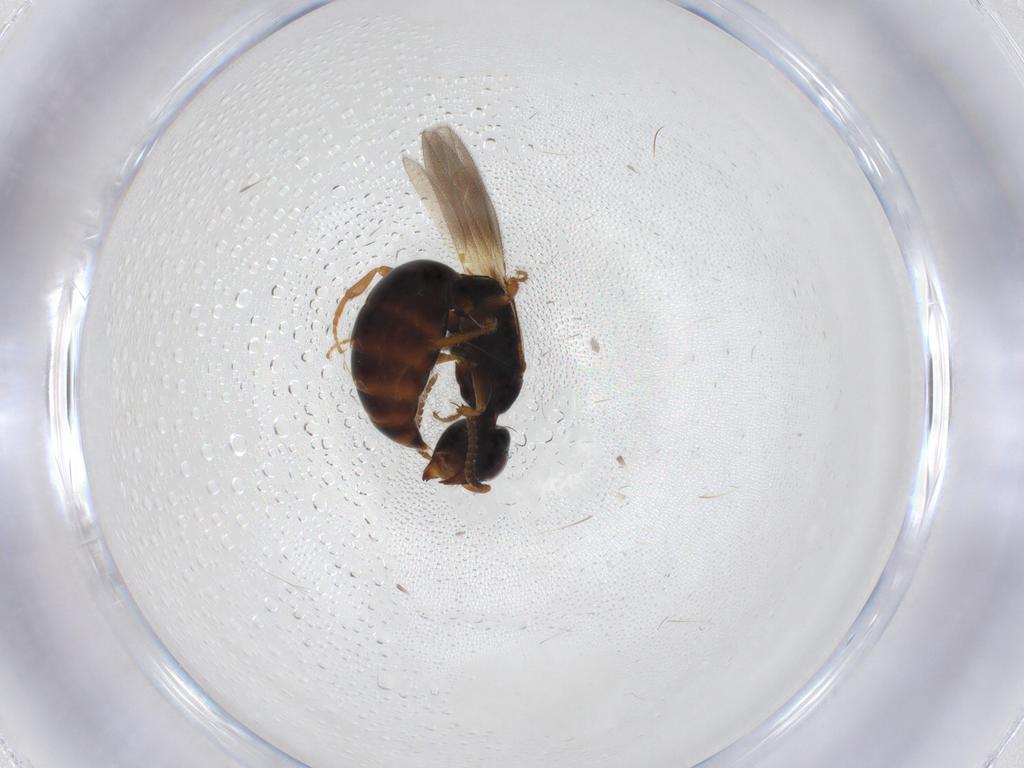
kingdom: Animalia
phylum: Arthropoda
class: Insecta
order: Hymenoptera
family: Bethylidae
